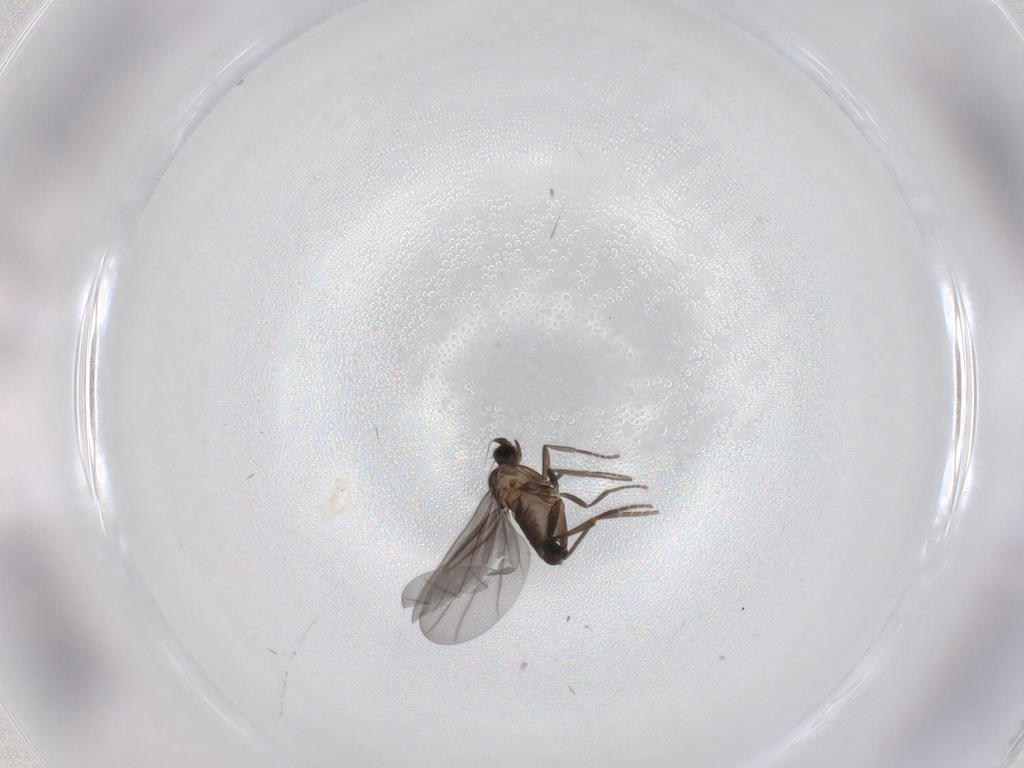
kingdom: Animalia
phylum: Arthropoda
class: Insecta
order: Diptera
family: Phoridae
